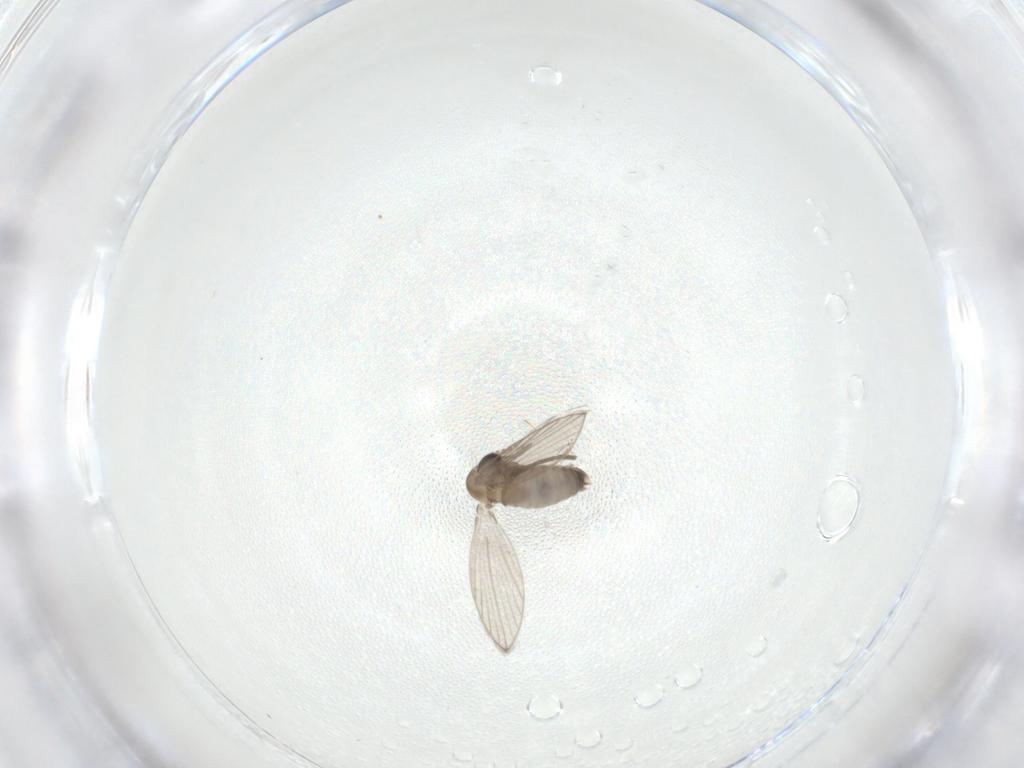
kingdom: Animalia
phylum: Arthropoda
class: Insecta
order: Diptera
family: Psychodidae
